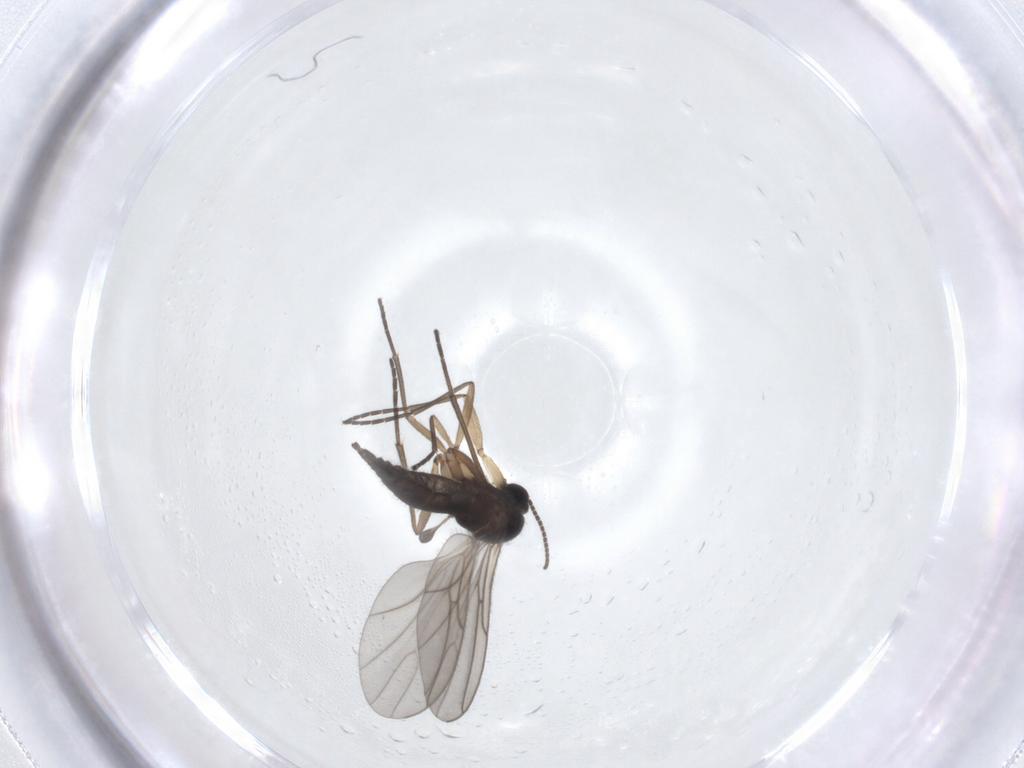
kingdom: Animalia
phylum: Arthropoda
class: Insecta
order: Diptera
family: Sciaridae
